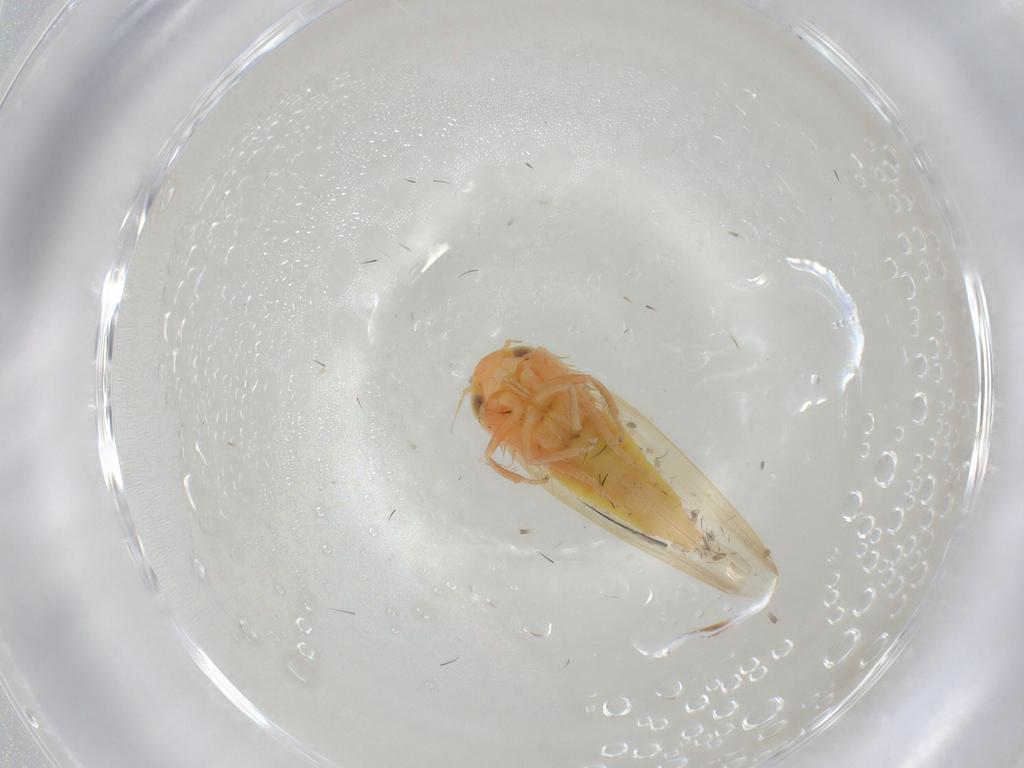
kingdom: Animalia
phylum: Arthropoda
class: Insecta
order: Hemiptera
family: Cicadellidae
